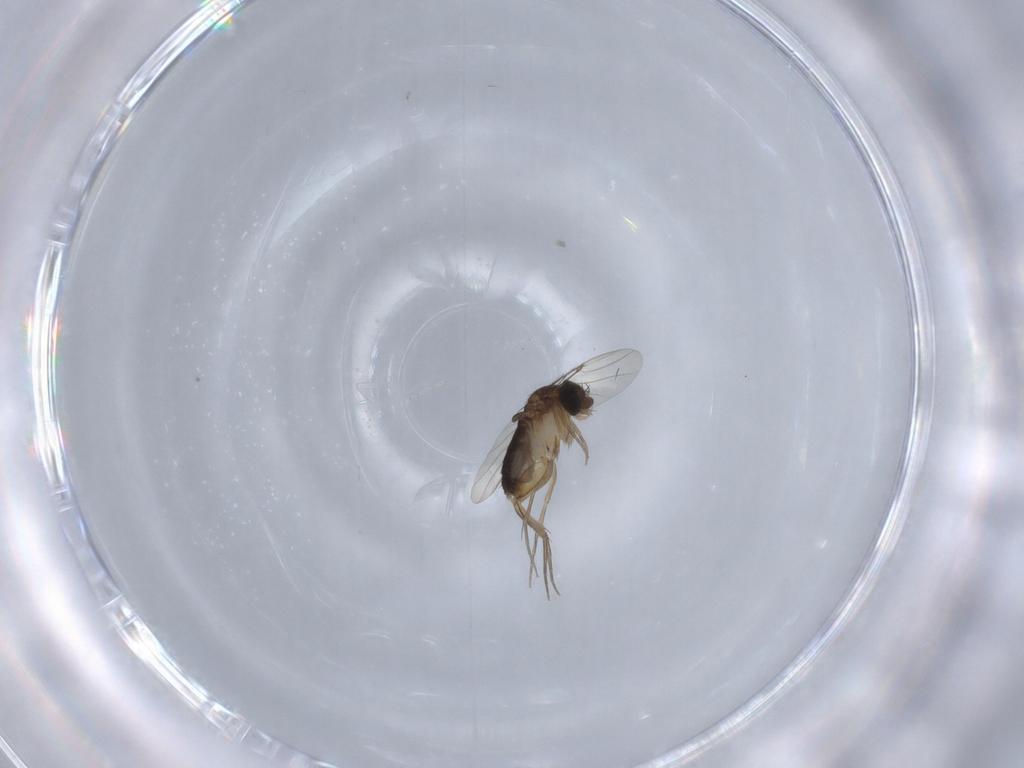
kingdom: Animalia
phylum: Arthropoda
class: Insecta
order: Diptera
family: Phoridae
